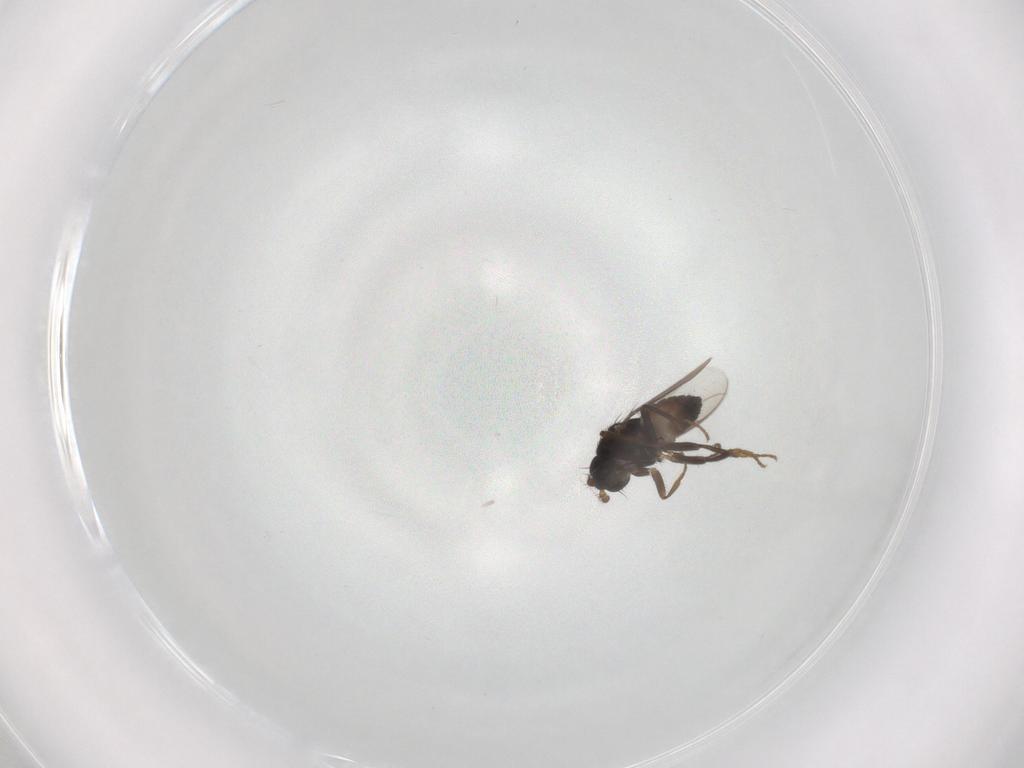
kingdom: Animalia
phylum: Arthropoda
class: Insecta
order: Diptera
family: Sphaeroceridae
